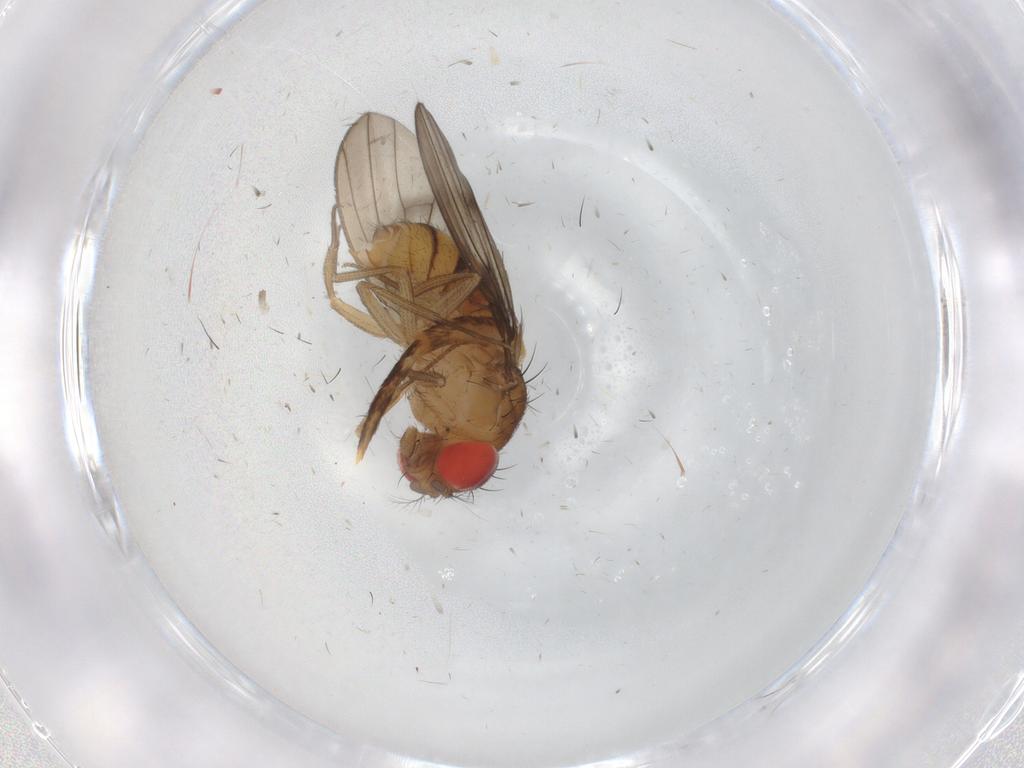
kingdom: Animalia
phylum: Arthropoda
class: Insecta
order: Diptera
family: Drosophilidae
